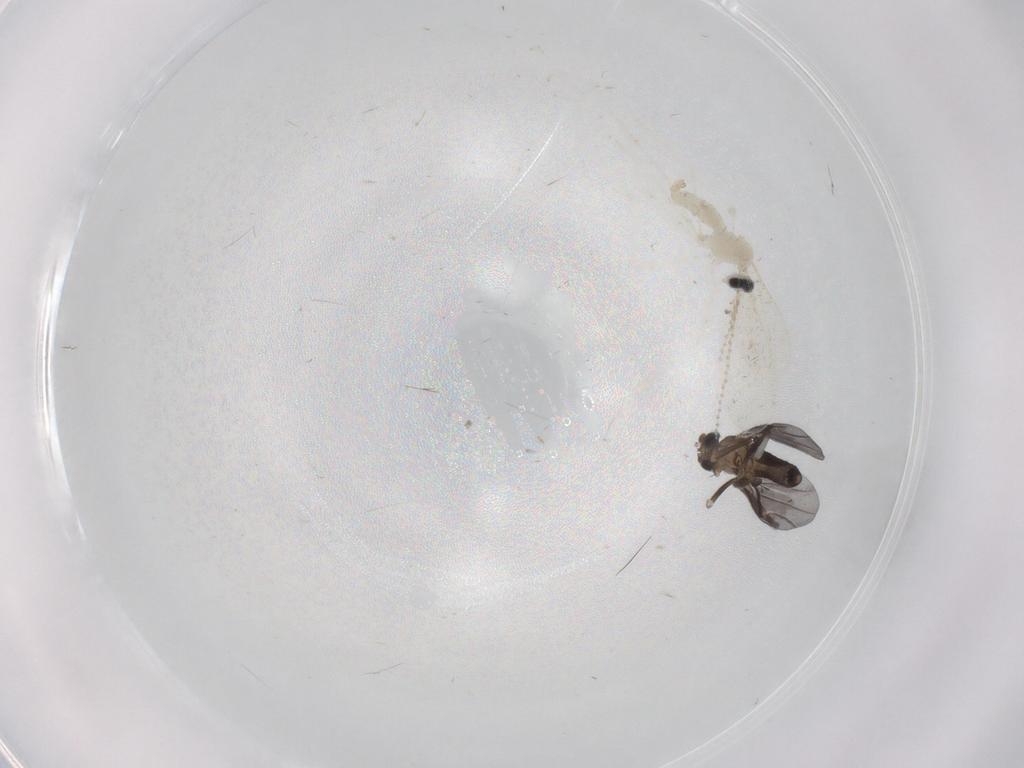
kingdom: Animalia
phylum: Arthropoda
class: Insecta
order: Diptera
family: Cecidomyiidae
